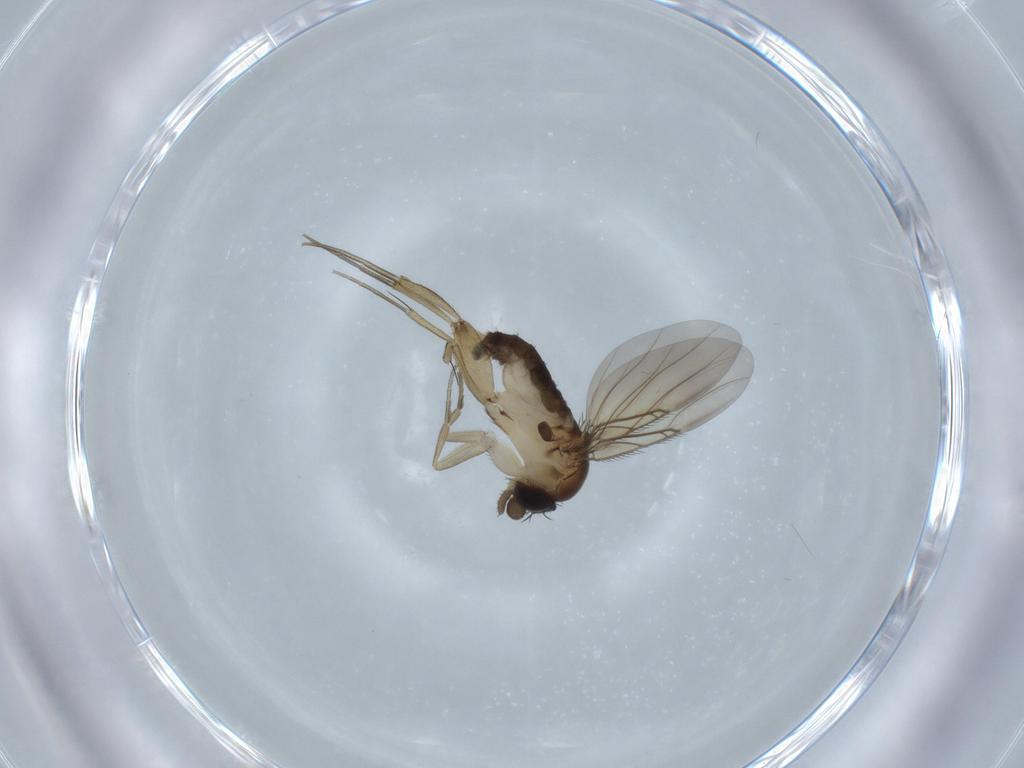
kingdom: Animalia
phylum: Arthropoda
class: Insecta
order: Diptera
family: Phoridae
